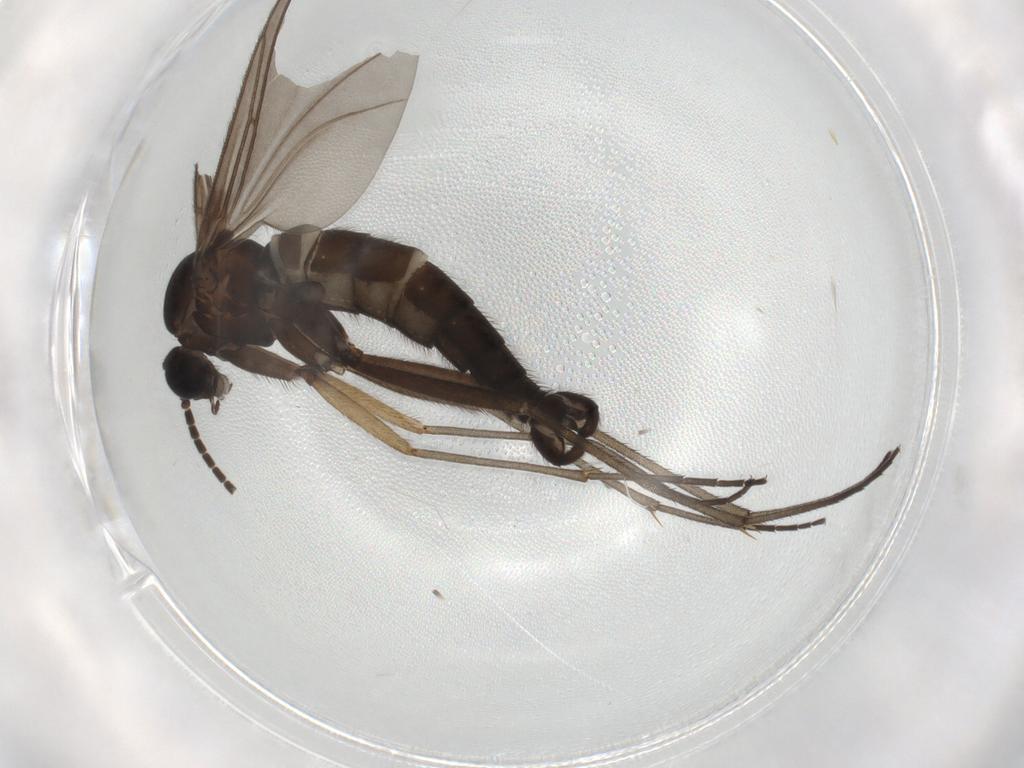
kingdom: Animalia
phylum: Arthropoda
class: Insecta
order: Diptera
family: Sciaridae
